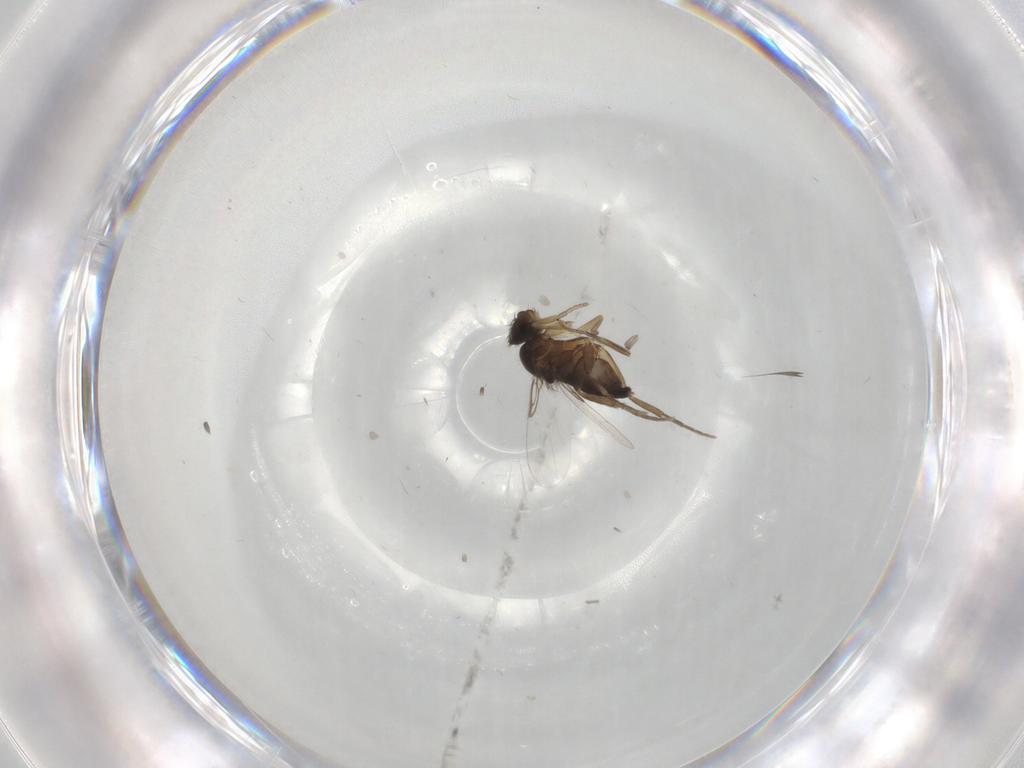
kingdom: Animalia
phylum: Arthropoda
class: Insecta
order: Diptera
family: Phoridae
